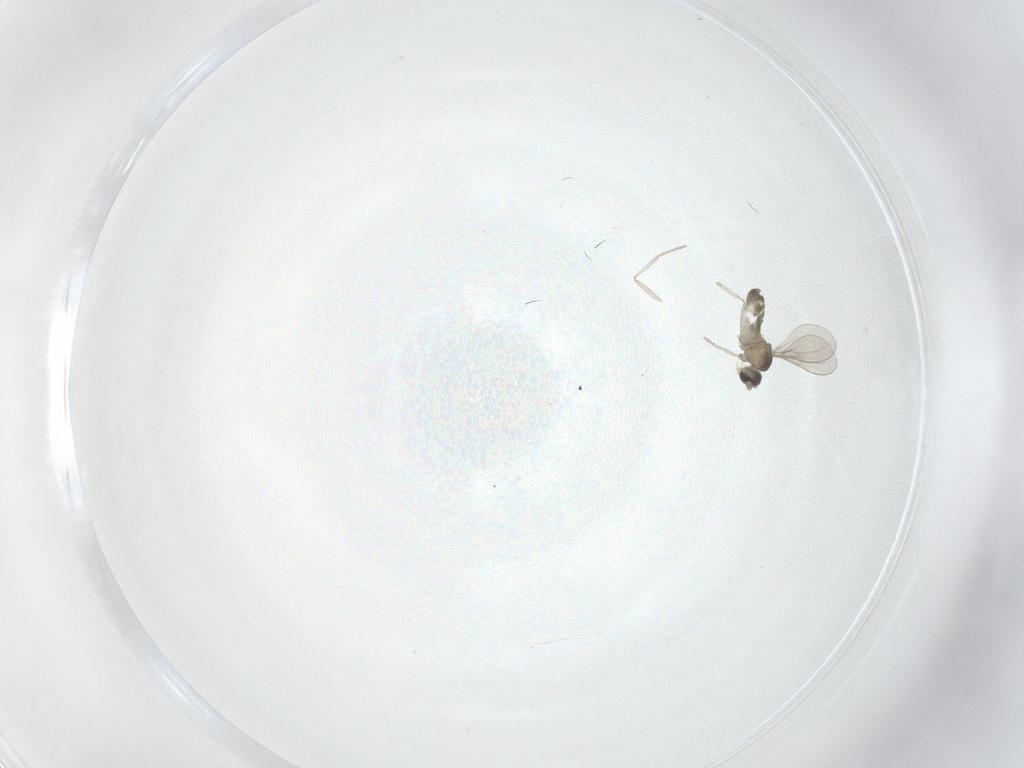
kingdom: Animalia
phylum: Arthropoda
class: Insecta
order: Diptera
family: Cecidomyiidae
